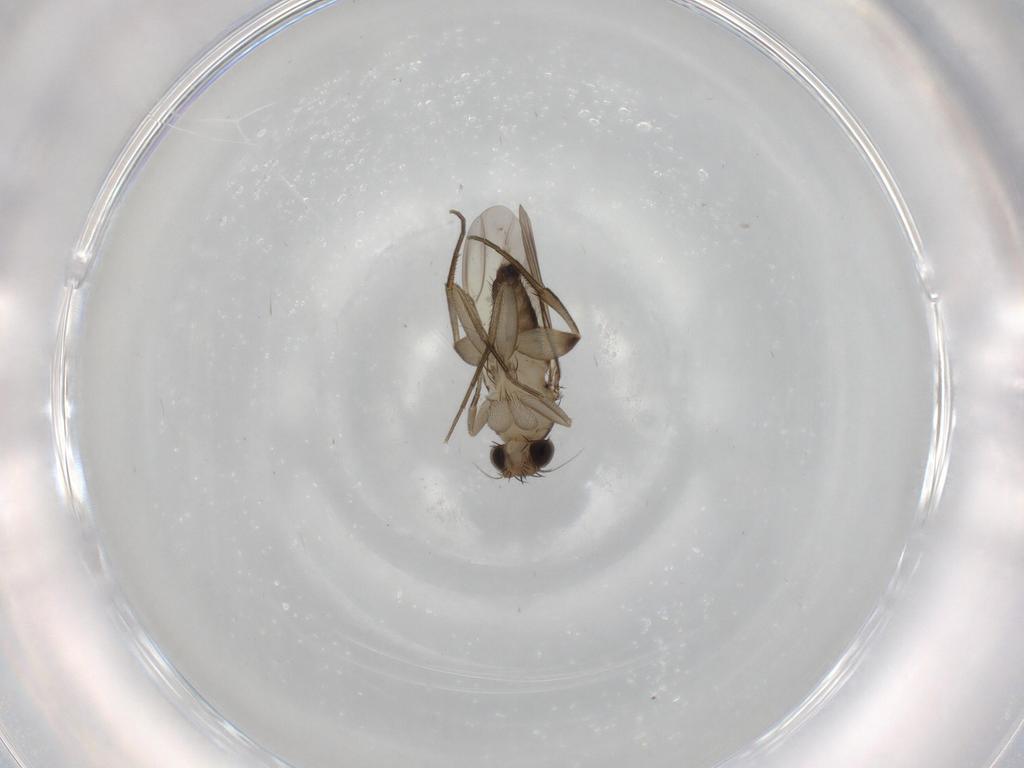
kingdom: Animalia
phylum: Arthropoda
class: Insecta
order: Diptera
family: Phoridae
